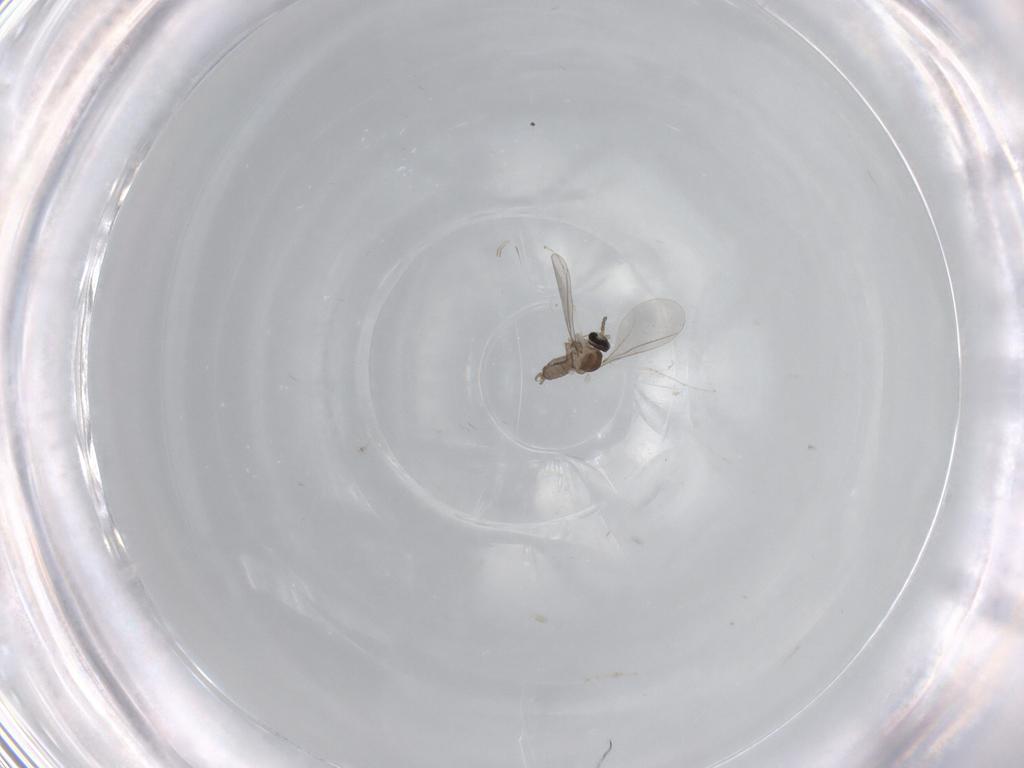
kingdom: Animalia
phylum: Arthropoda
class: Insecta
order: Diptera
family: Cecidomyiidae
